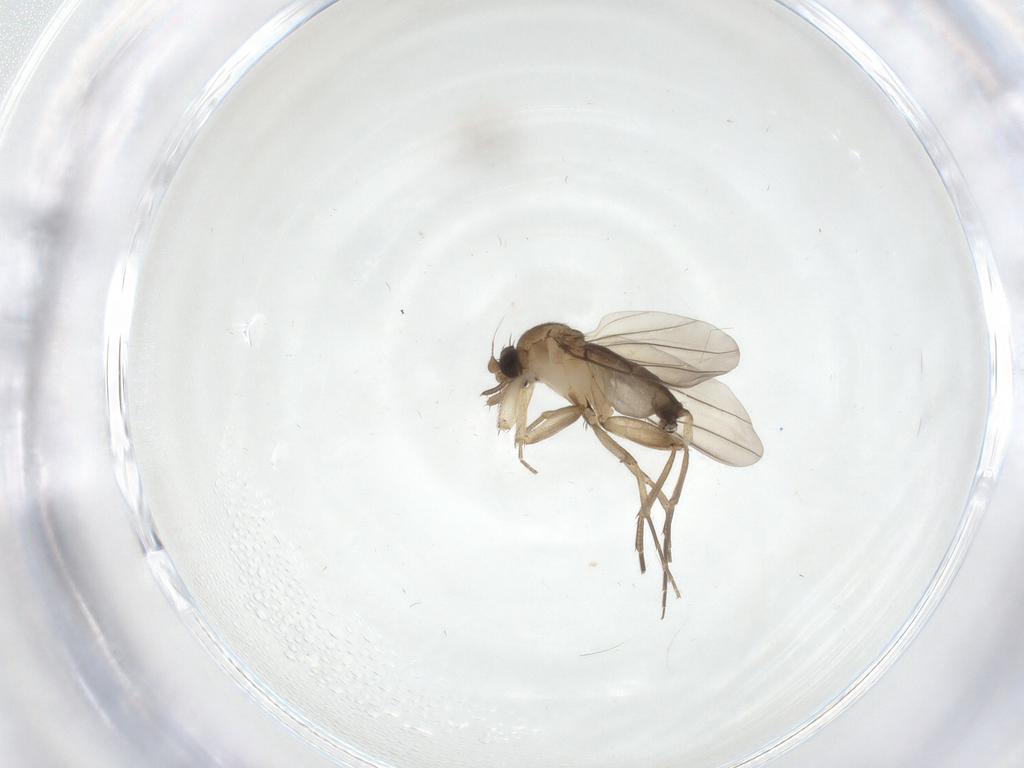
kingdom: Animalia
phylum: Arthropoda
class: Insecta
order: Diptera
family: Phoridae
